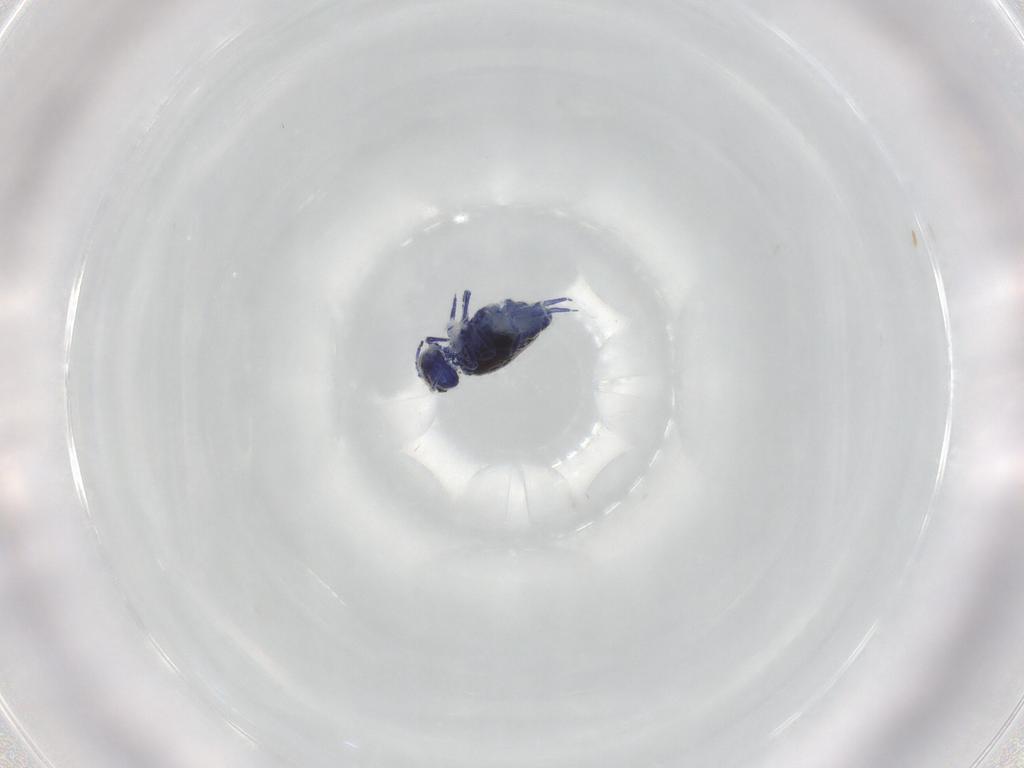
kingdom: Animalia
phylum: Arthropoda
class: Collembola
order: Symphypleona
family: Sminthurididae
